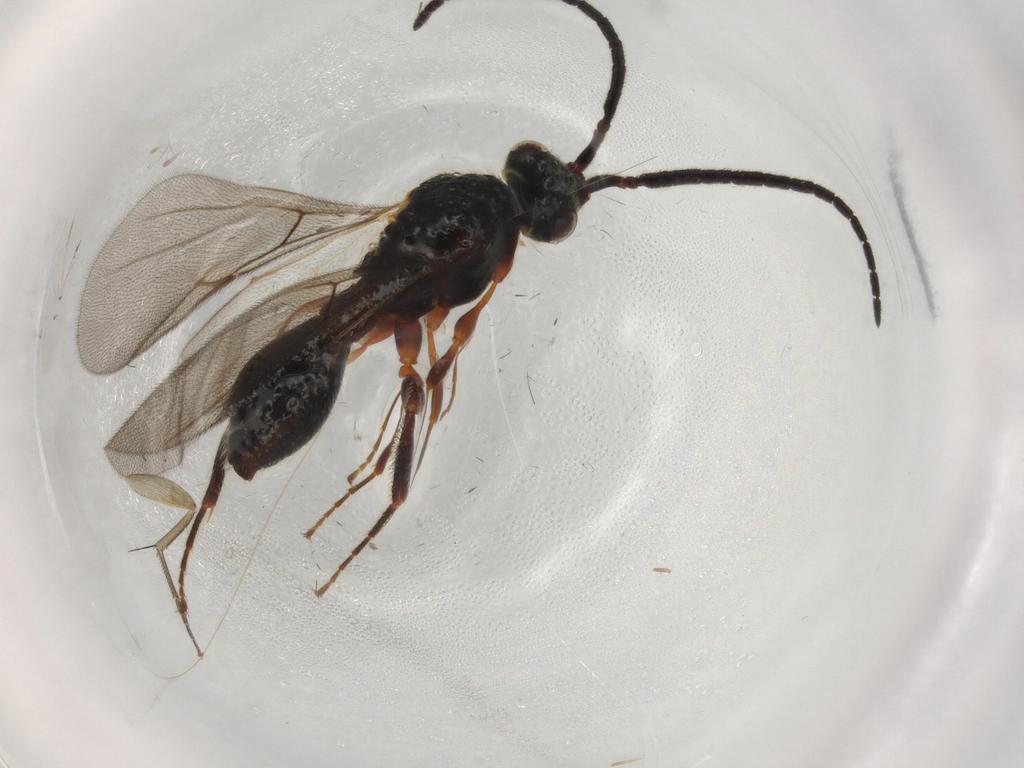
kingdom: Animalia
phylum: Arthropoda
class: Insecta
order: Hymenoptera
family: Diapriidae
